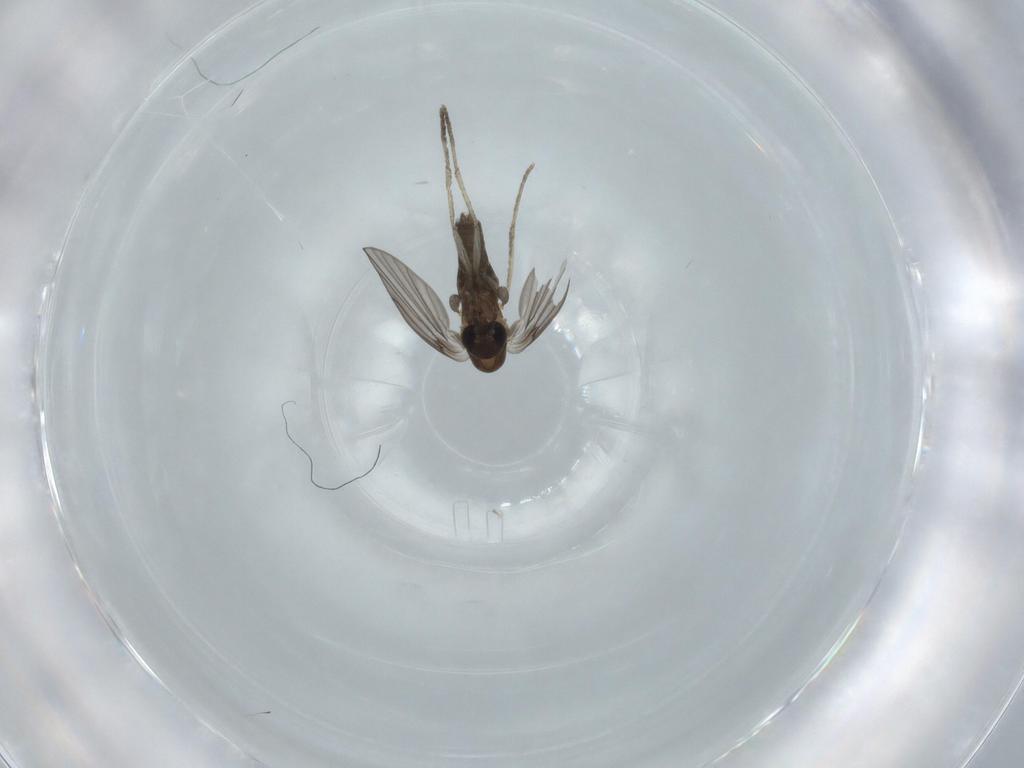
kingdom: Animalia
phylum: Arthropoda
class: Insecta
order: Diptera
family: Psychodidae
